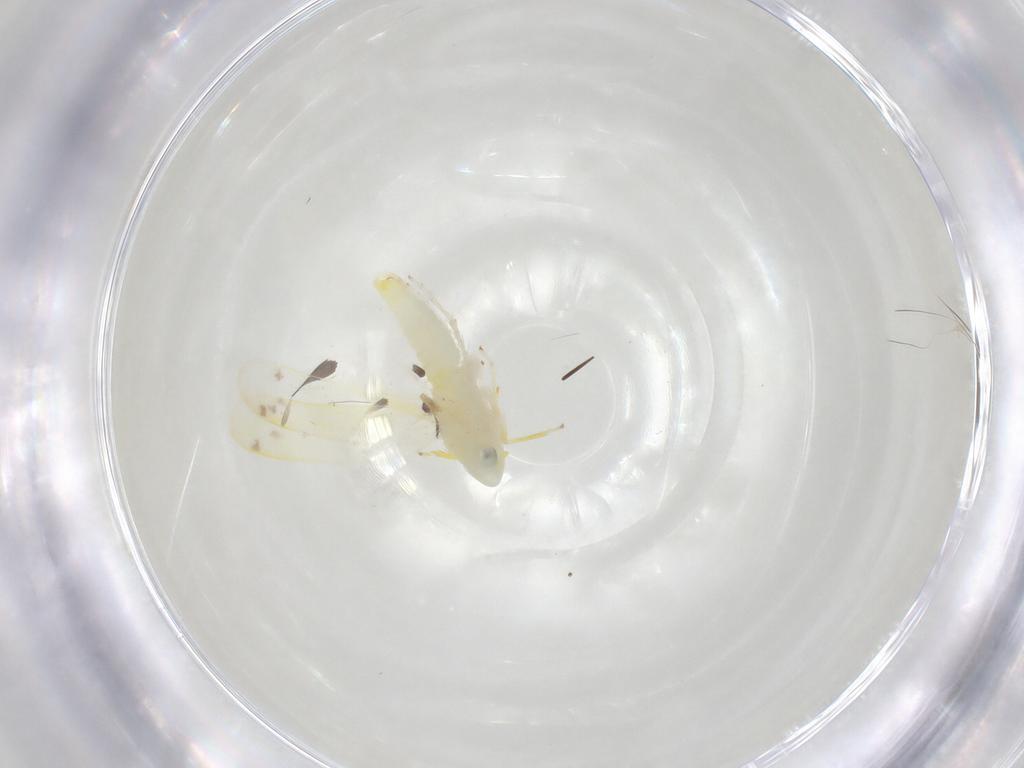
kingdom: Animalia
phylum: Arthropoda
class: Insecta
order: Hemiptera
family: Cicadellidae
